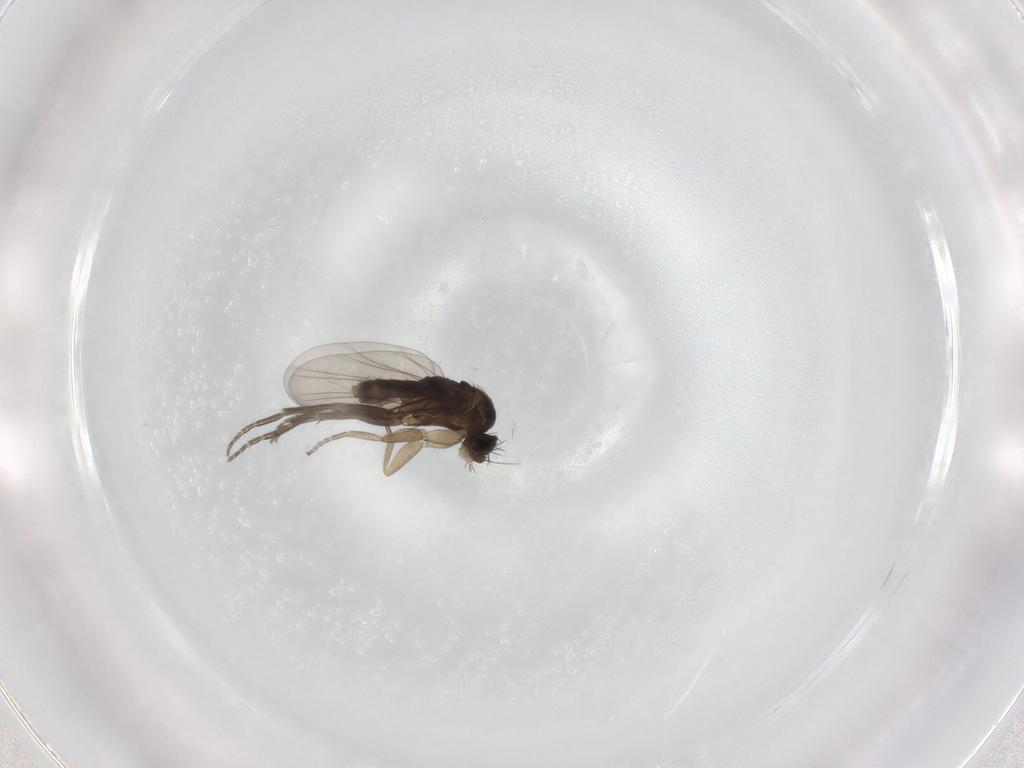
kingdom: Animalia
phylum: Arthropoda
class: Insecta
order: Diptera
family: Phoridae
